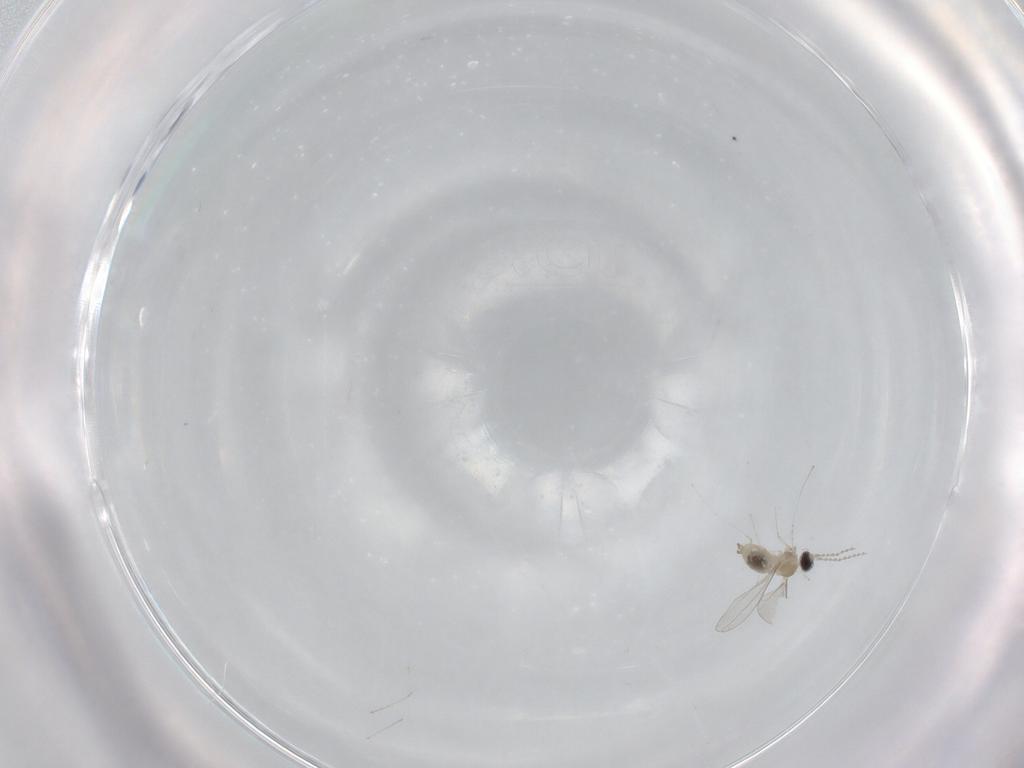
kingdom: Animalia
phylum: Arthropoda
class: Insecta
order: Diptera
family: Cecidomyiidae
